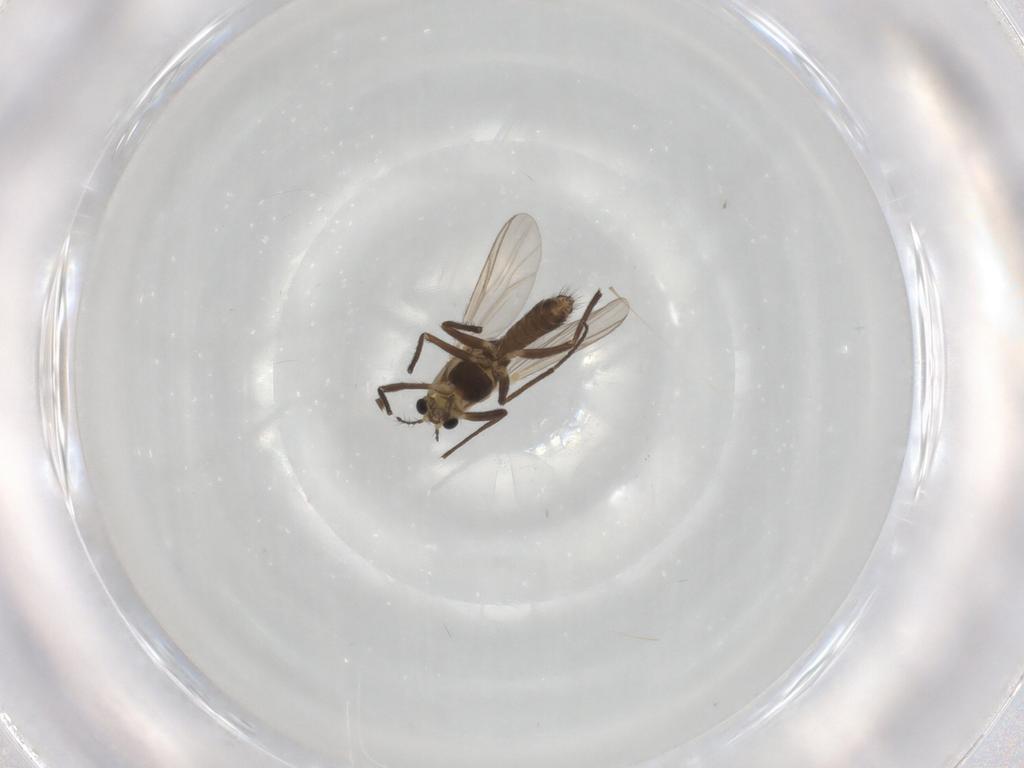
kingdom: Animalia
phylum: Arthropoda
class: Insecta
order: Diptera
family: Chironomidae
